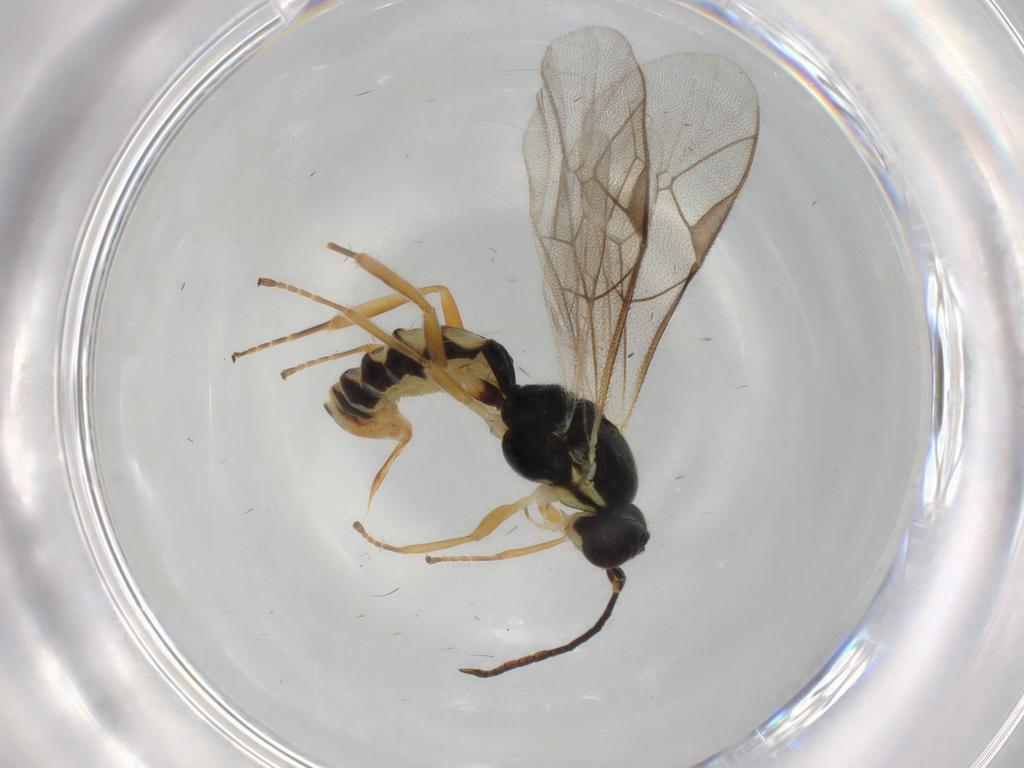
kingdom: Animalia
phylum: Arthropoda
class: Insecta
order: Hymenoptera
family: Ichneumonidae
